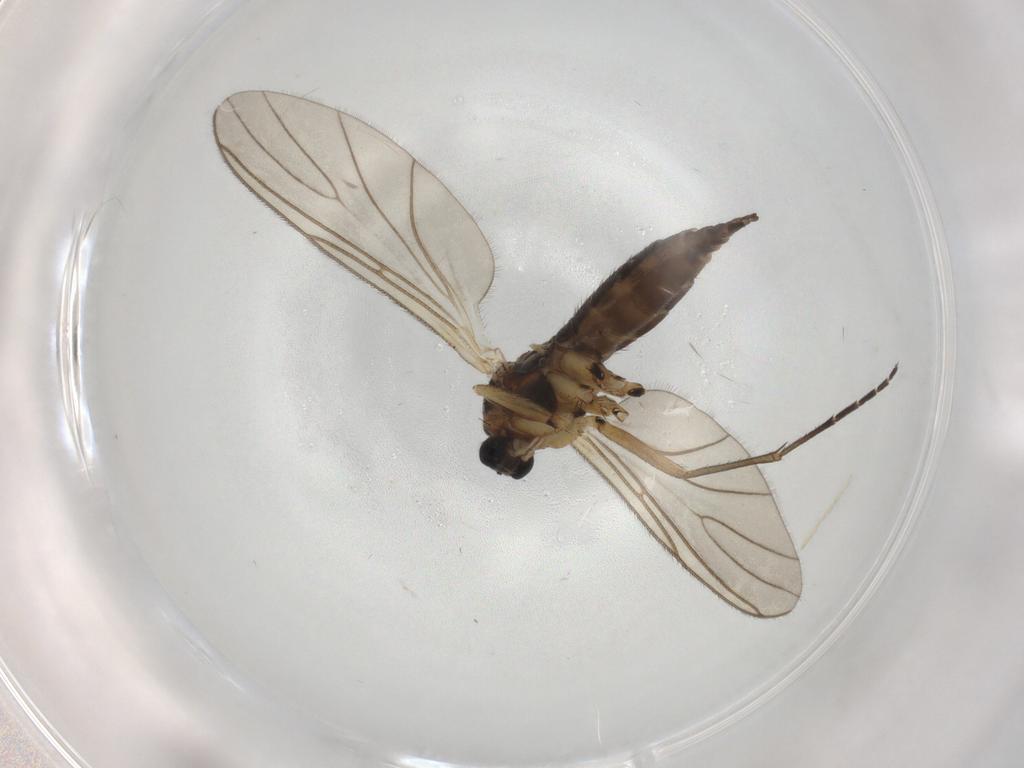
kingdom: Animalia
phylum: Arthropoda
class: Insecta
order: Diptera
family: Sciaridae
